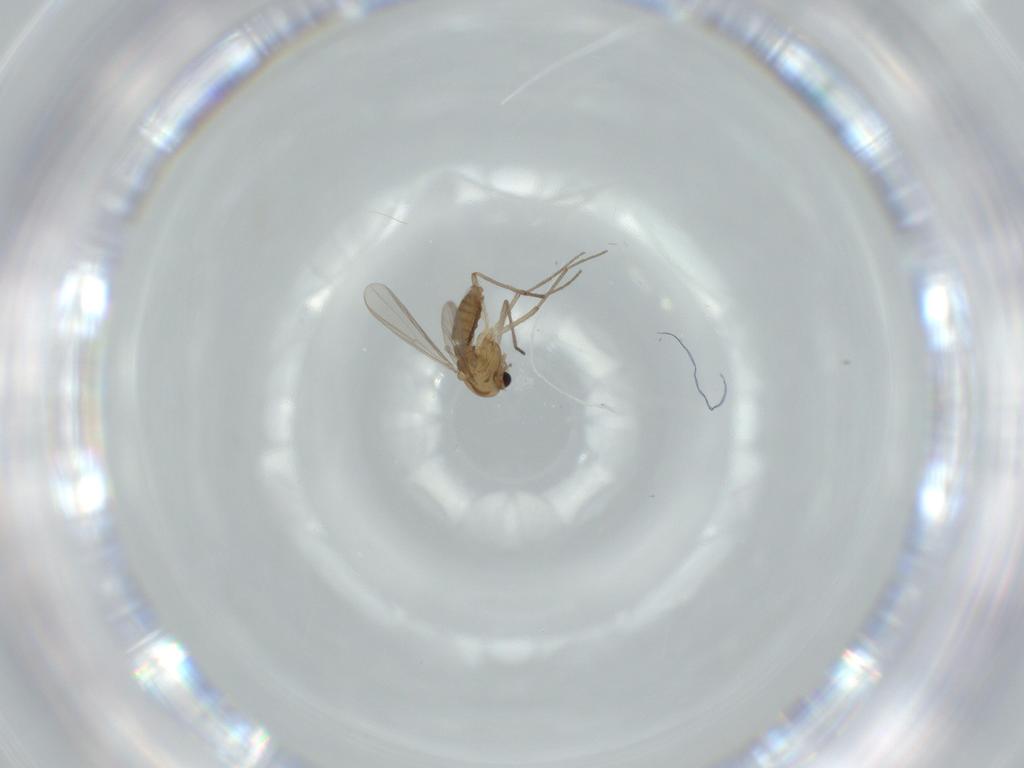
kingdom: Animalia
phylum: Arthropoda
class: Insecta
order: Diptera
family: Chironomidae
